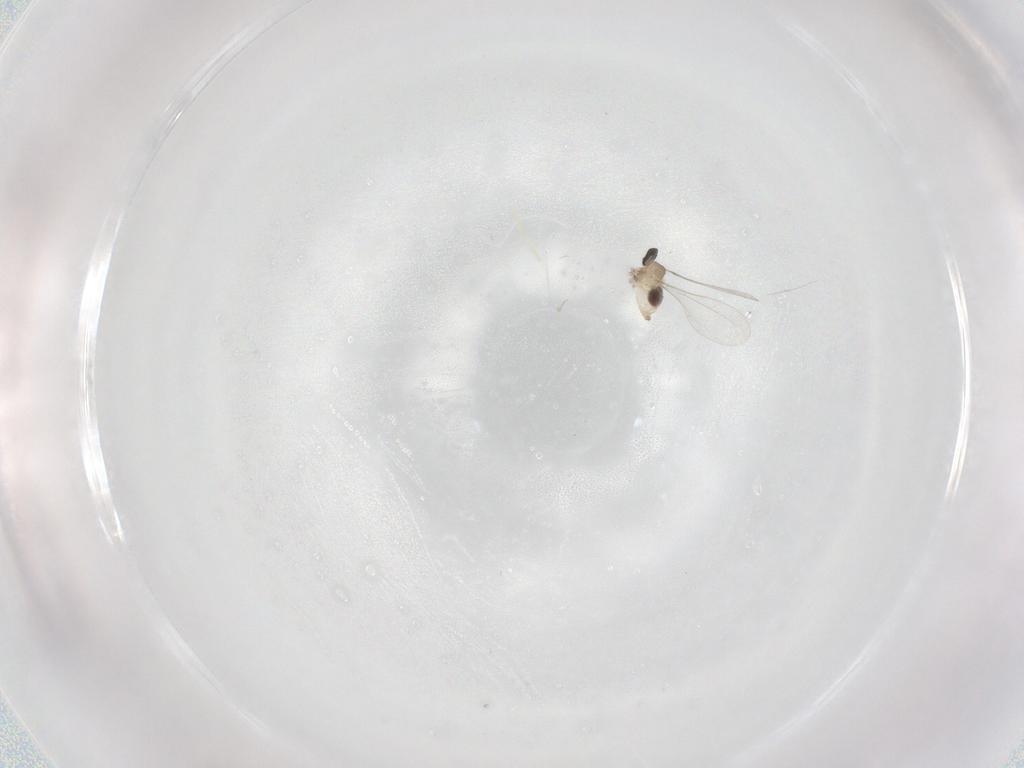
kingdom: Animalia
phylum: Arthropoda
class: Insecta
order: Diptera
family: Cecidomyiidae
